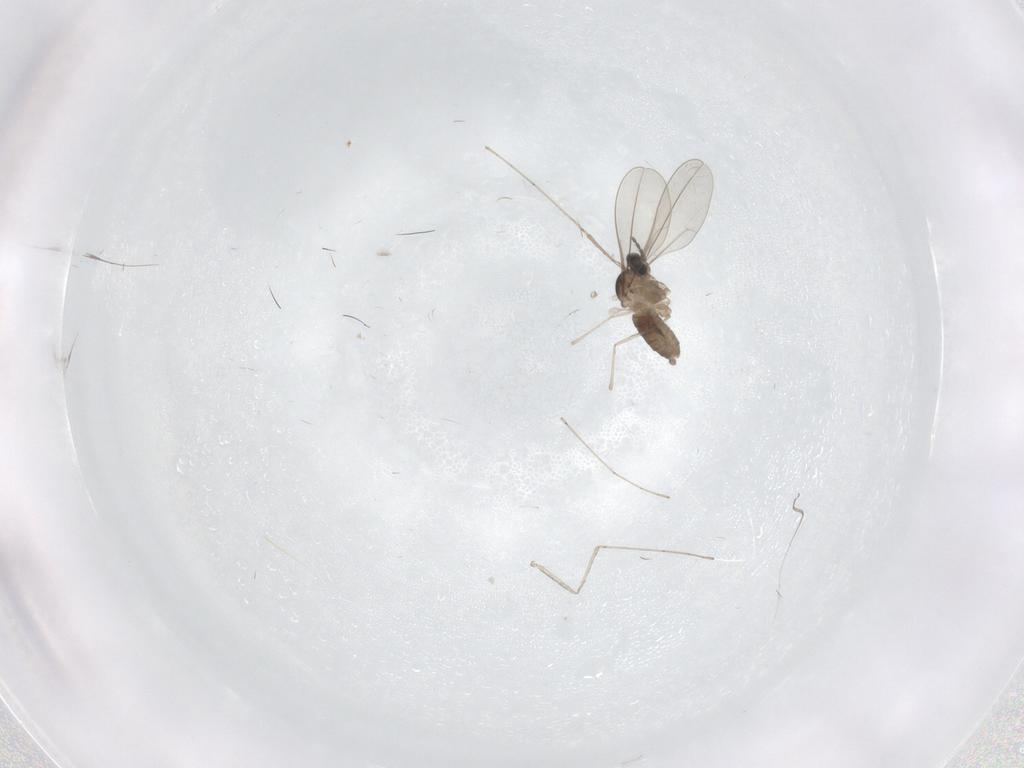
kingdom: Animalia
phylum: Arthropoda
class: Insecta
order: Diptera
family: Cecidomyiidae
